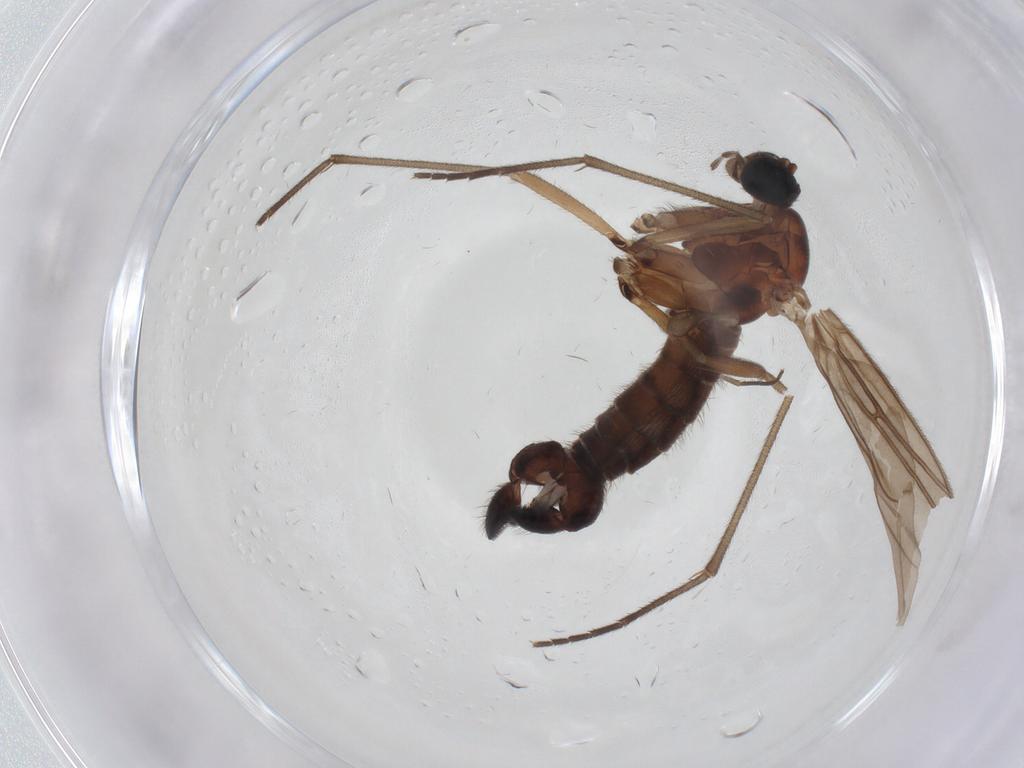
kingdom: Animalia
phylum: Arthropoda
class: Insecta
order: Diptera
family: Sciaridae
